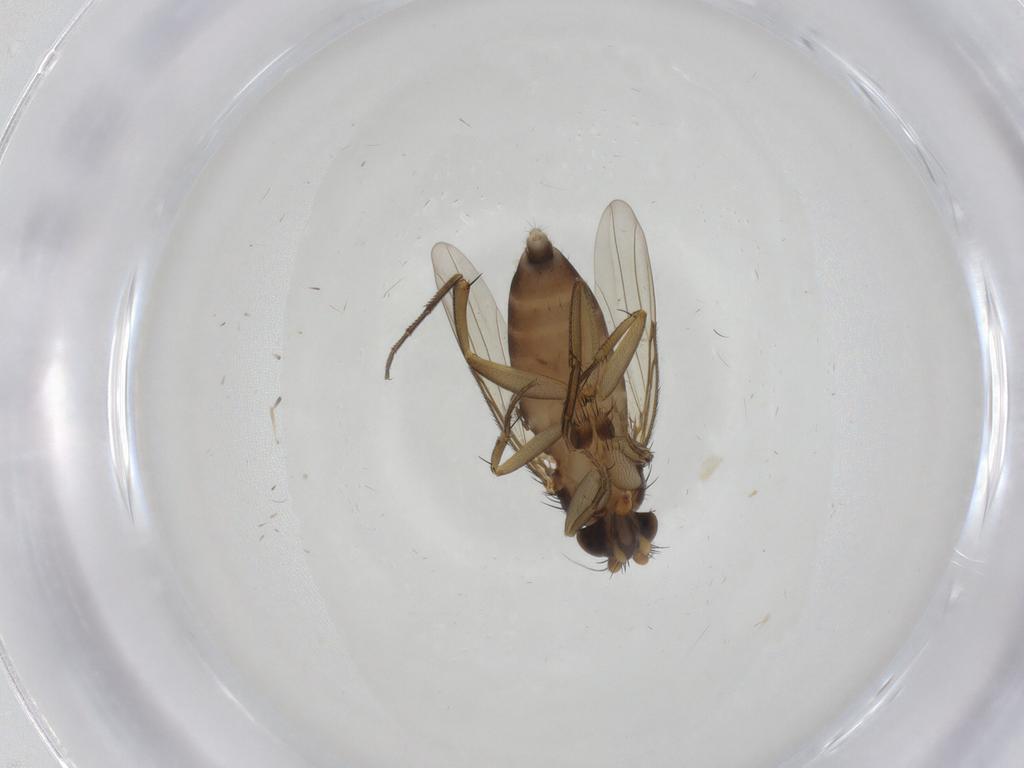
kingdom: Animalia
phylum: Arthropoda
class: Insecta
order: Diptera
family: Phoridae
